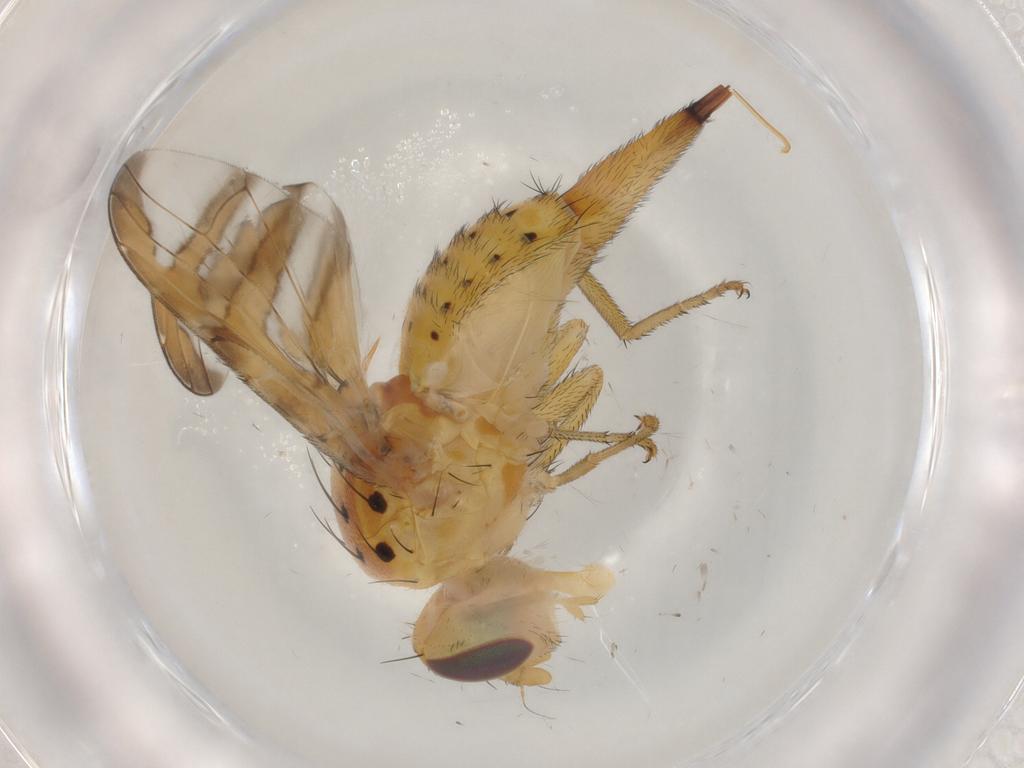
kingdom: Animalia
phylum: Arthropoda
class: Insecta
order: Diptera
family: Tephritidae
